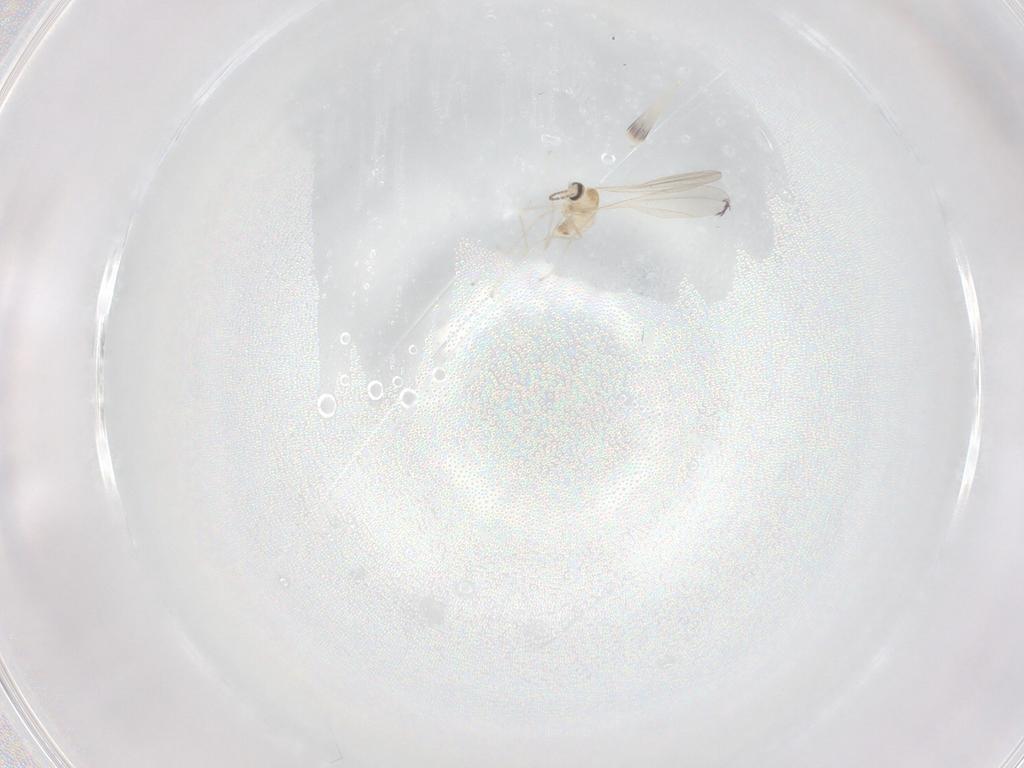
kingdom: Animalia
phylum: Arthropoda
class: Insecta
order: Diptera
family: Cecidomyiidae
